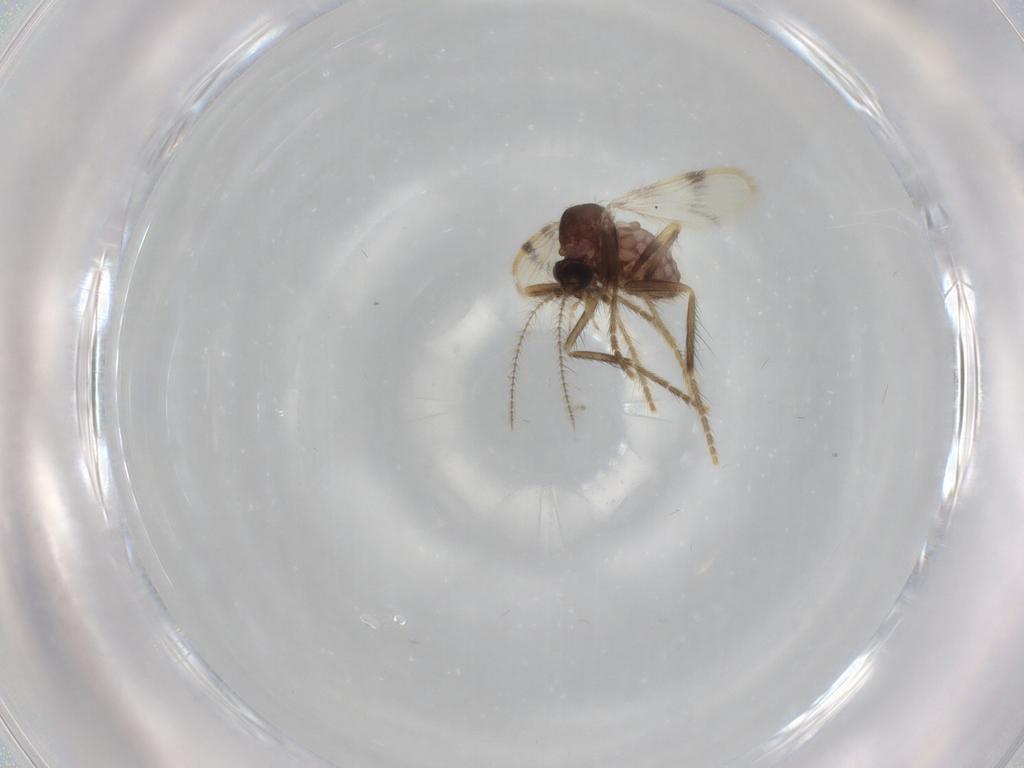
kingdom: Animalia
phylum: Arthropoda
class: Insecta
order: Diptera
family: Corethrellidae
